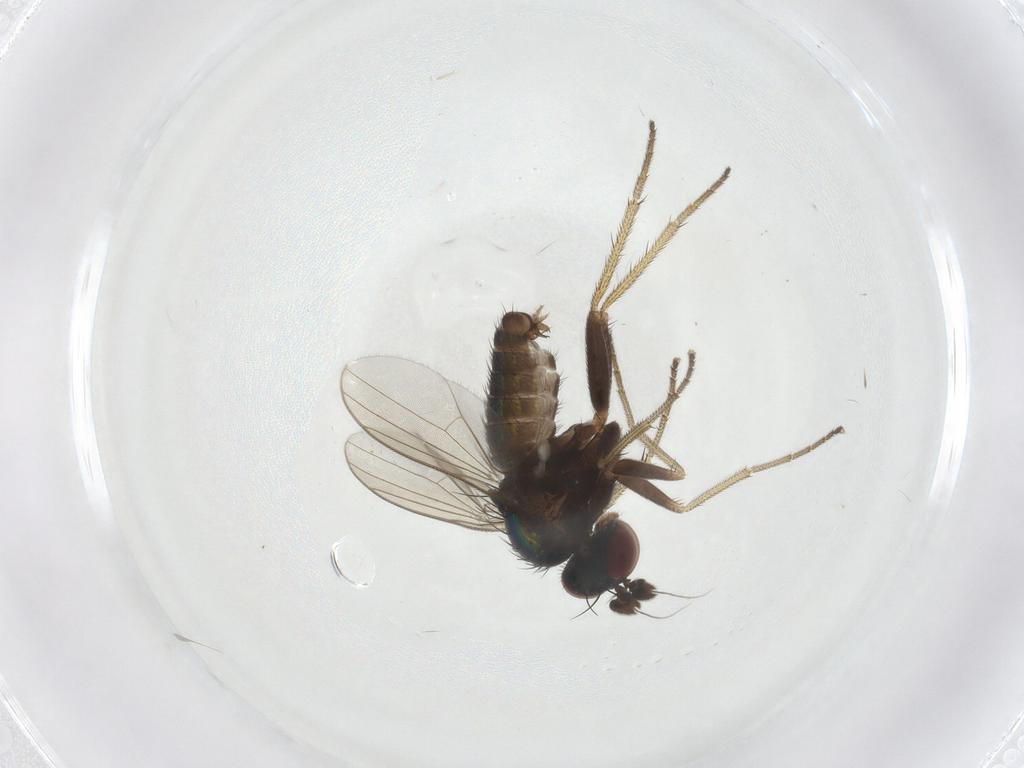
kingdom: Animalia
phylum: Arthropoda
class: Insecta
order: Diptera
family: Dolichopodidae
